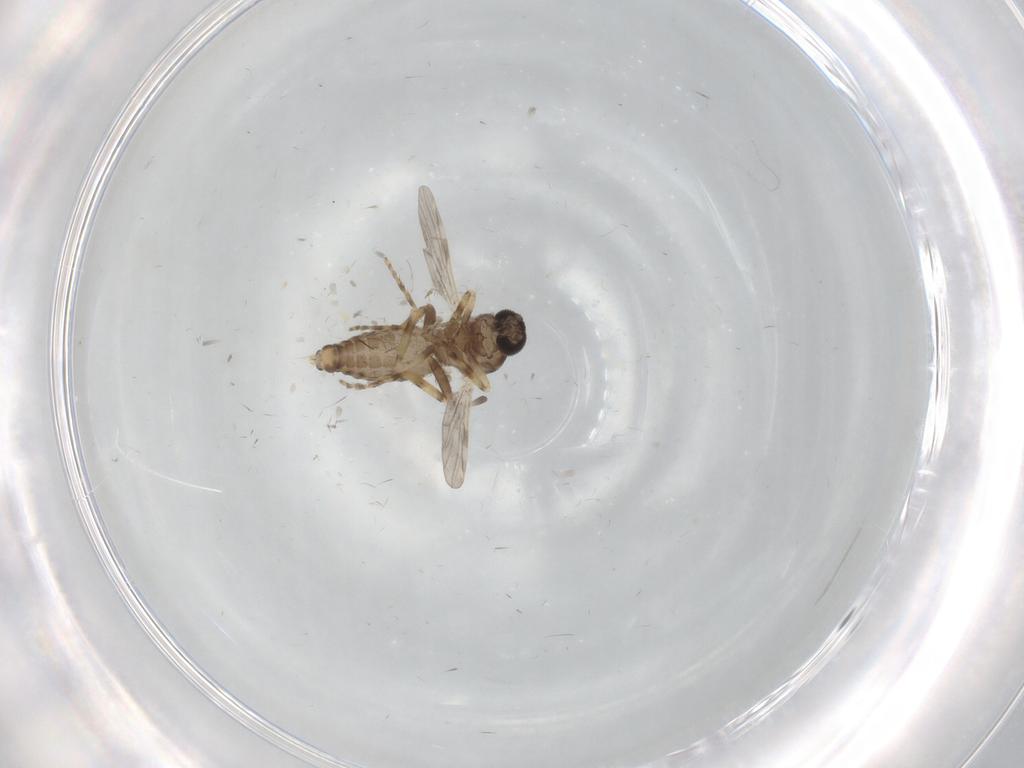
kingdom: Animalia
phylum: Arthropoda
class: Insecta
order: Diptera
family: Ceratopogonidae
